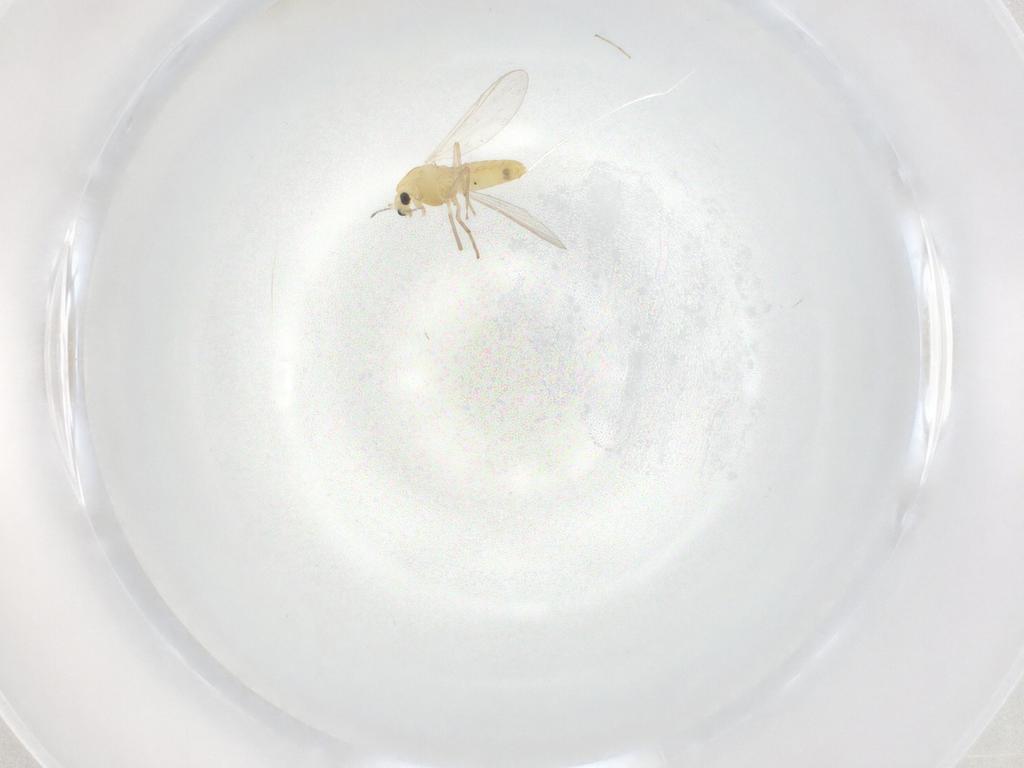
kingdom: Animalia
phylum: Arthropoda
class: Insecta
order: Diptera
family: Chironomidae
